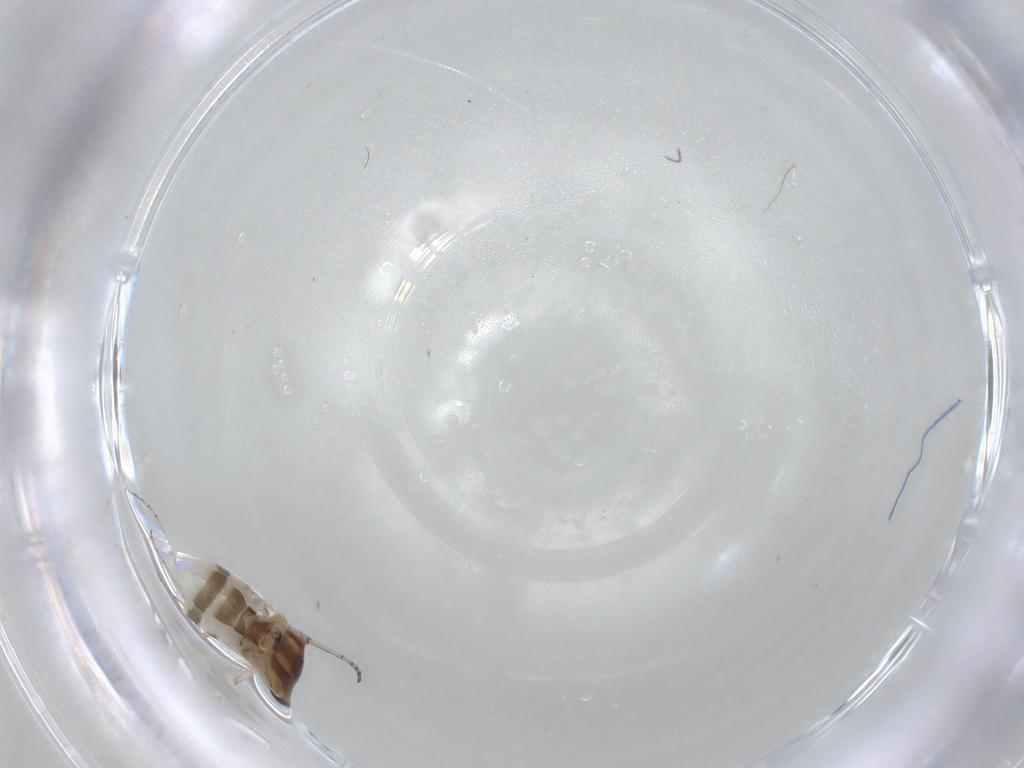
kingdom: Animalia
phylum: Arthropoda
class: Insecta
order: Diptera
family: Ceratopogonidae
